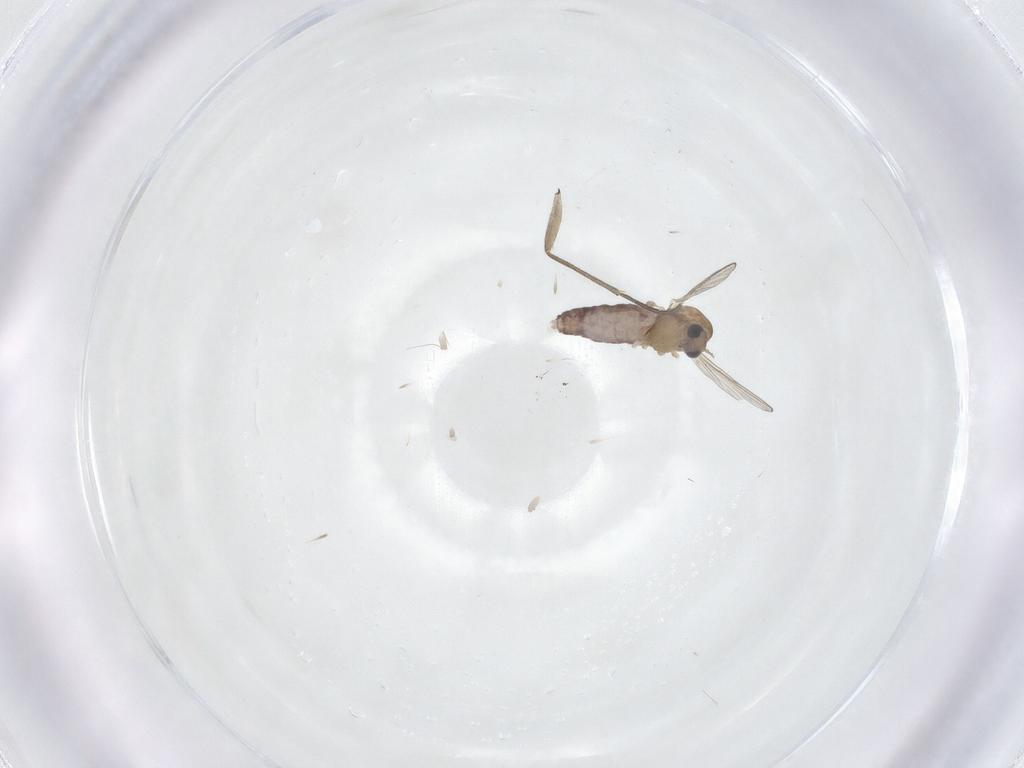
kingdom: Animalia
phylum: Arthropoda
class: Insecta
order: Diptera
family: Chironomidae
